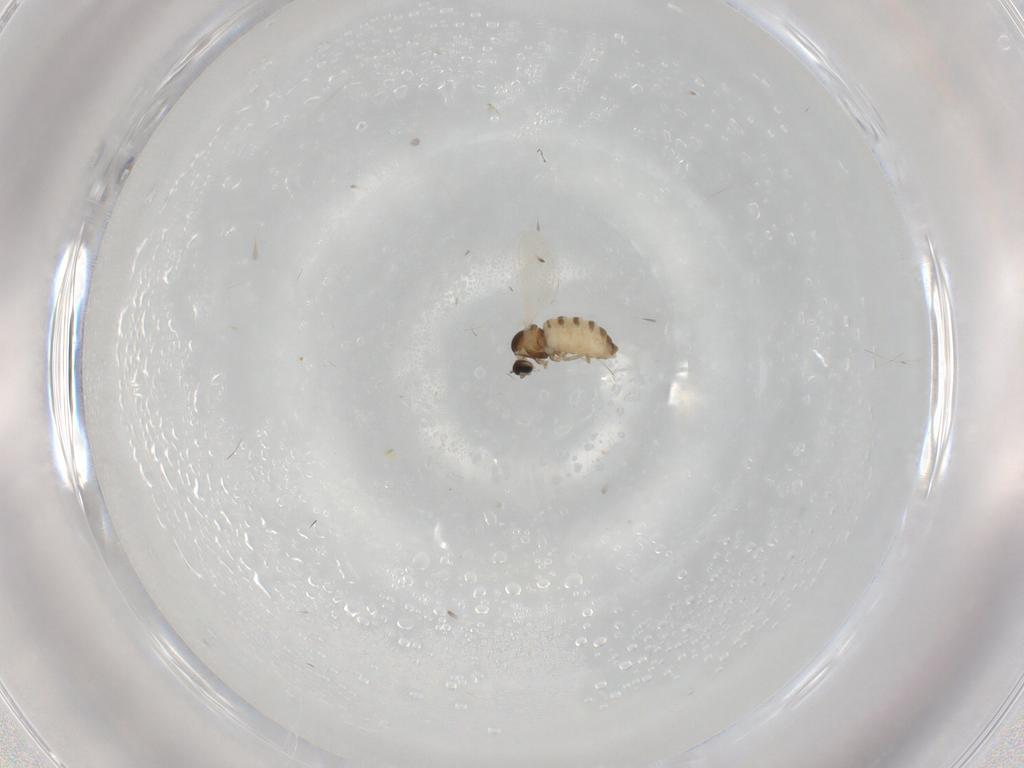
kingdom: Animalia
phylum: Arthropoda
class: Insecta
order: Diptera
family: Cecidomyiidae
